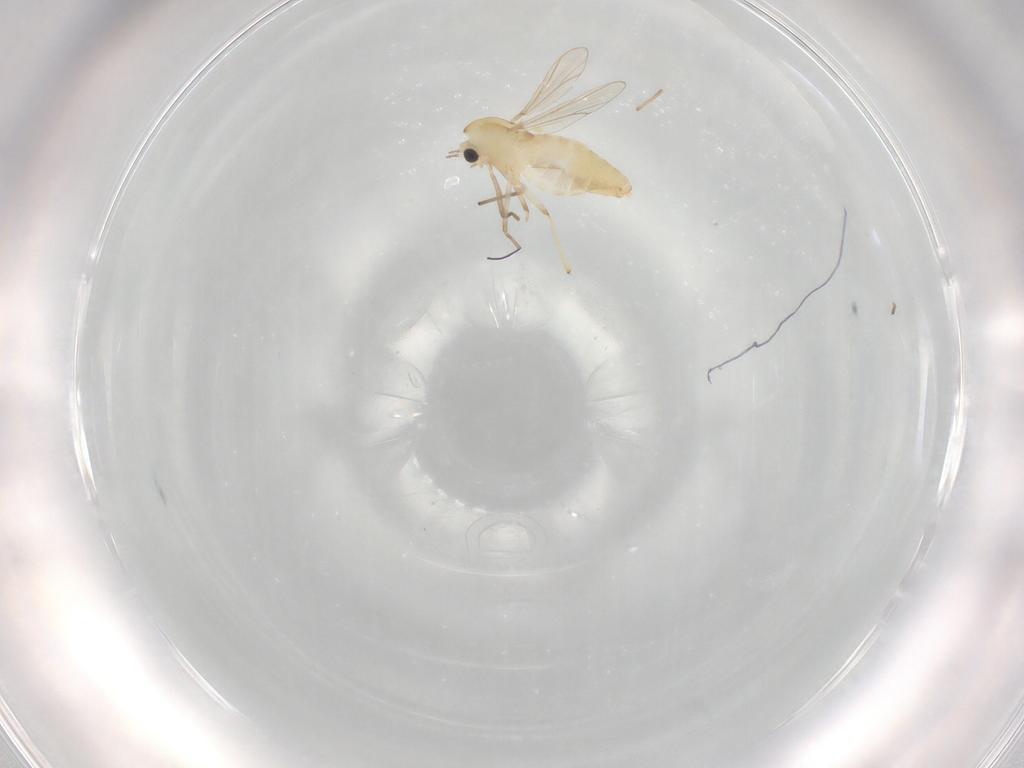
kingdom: Animalia
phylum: Arthropoda
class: Insecta
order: Diptera
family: Chironomidae
